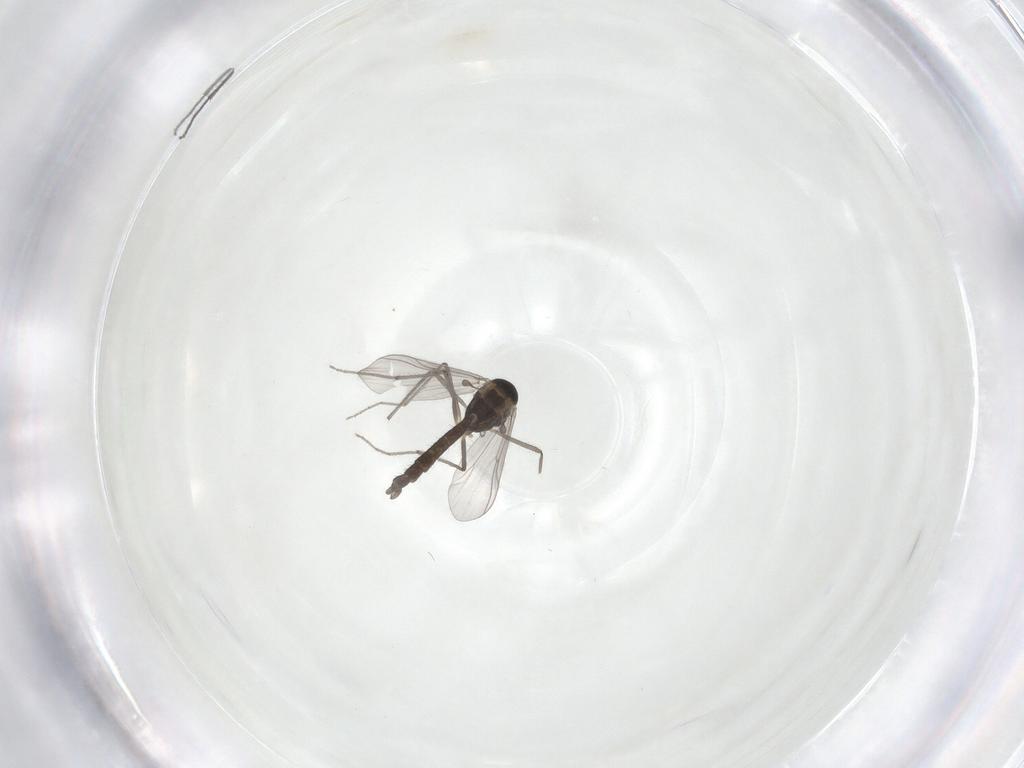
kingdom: Animalia
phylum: Arthropoda
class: Insecta
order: Diptera
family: Chironomidae
